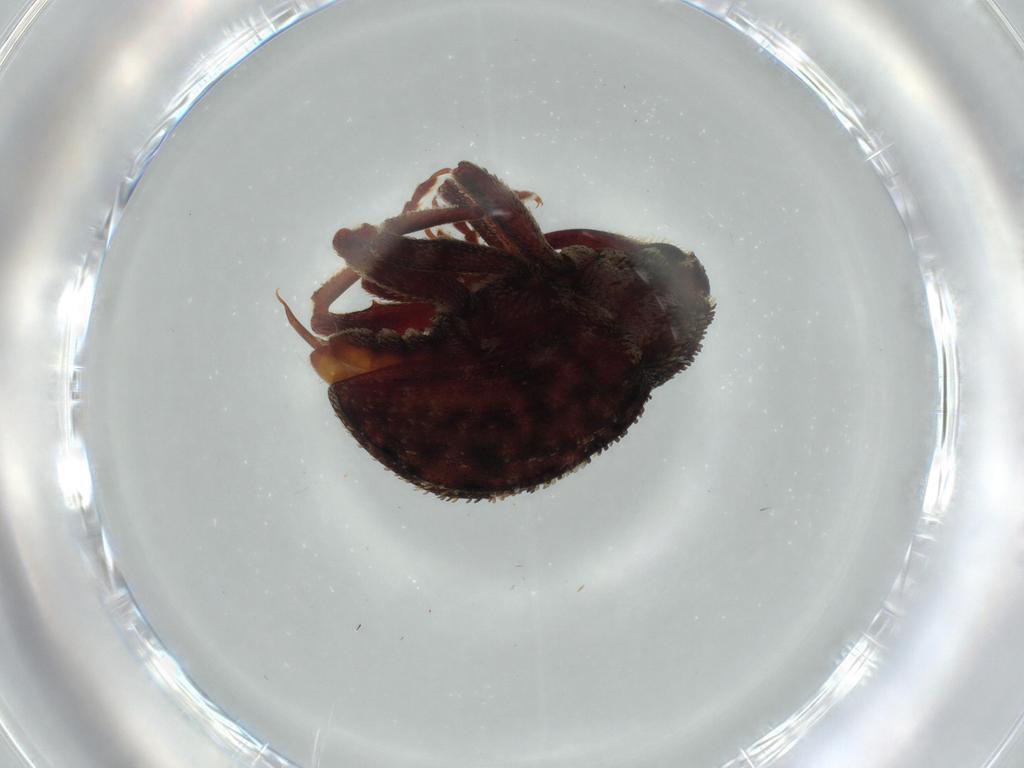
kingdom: Animalia
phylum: Arthropoda
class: Insecta
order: Coleoptera
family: Curculionidae
